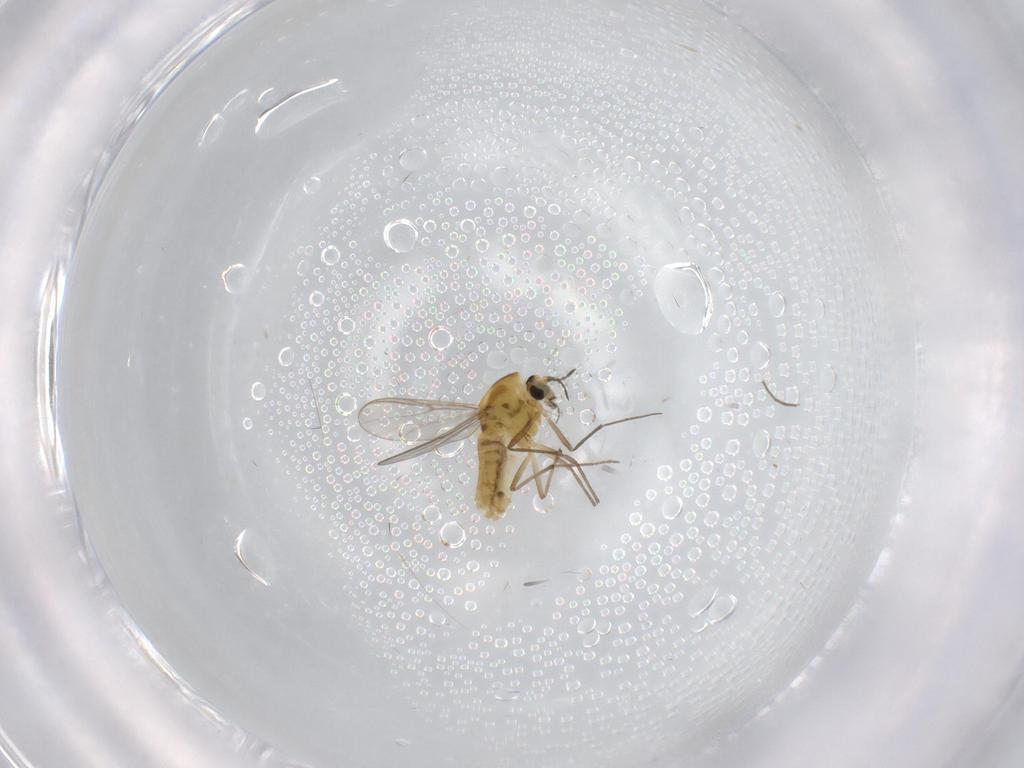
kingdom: Animalia
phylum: Arthropoda
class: Insecta
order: Diptera
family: Chironomidae
